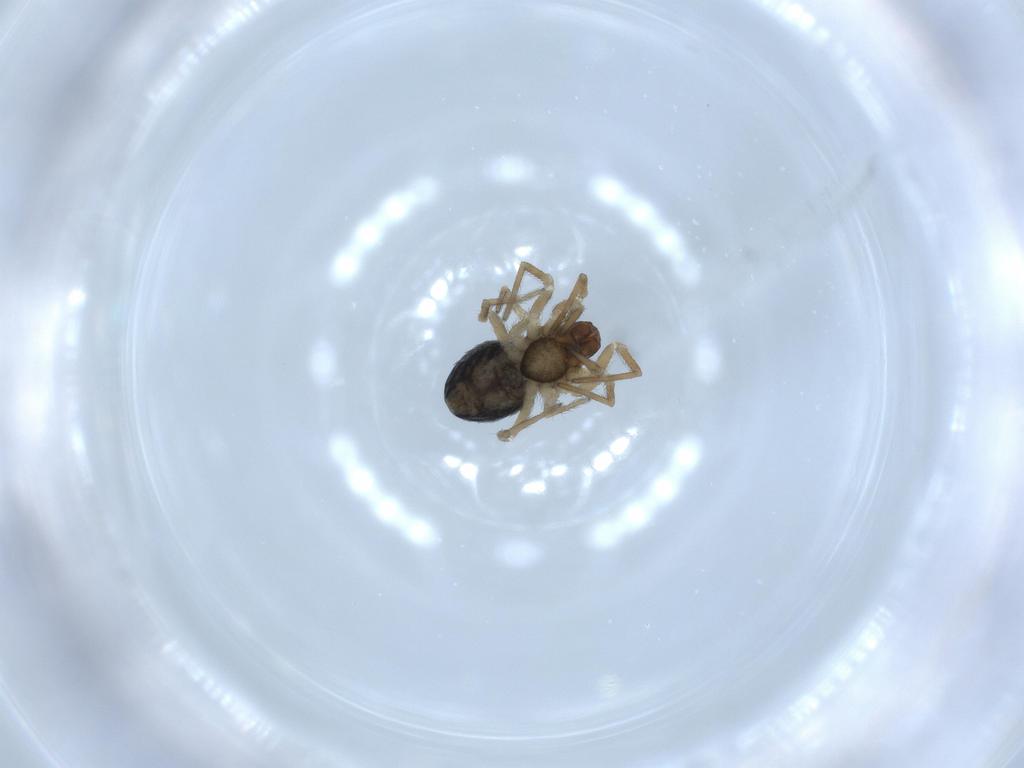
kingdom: Animalia
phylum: Arthropoda
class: Arachnida
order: Araneae
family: Dictynidae
